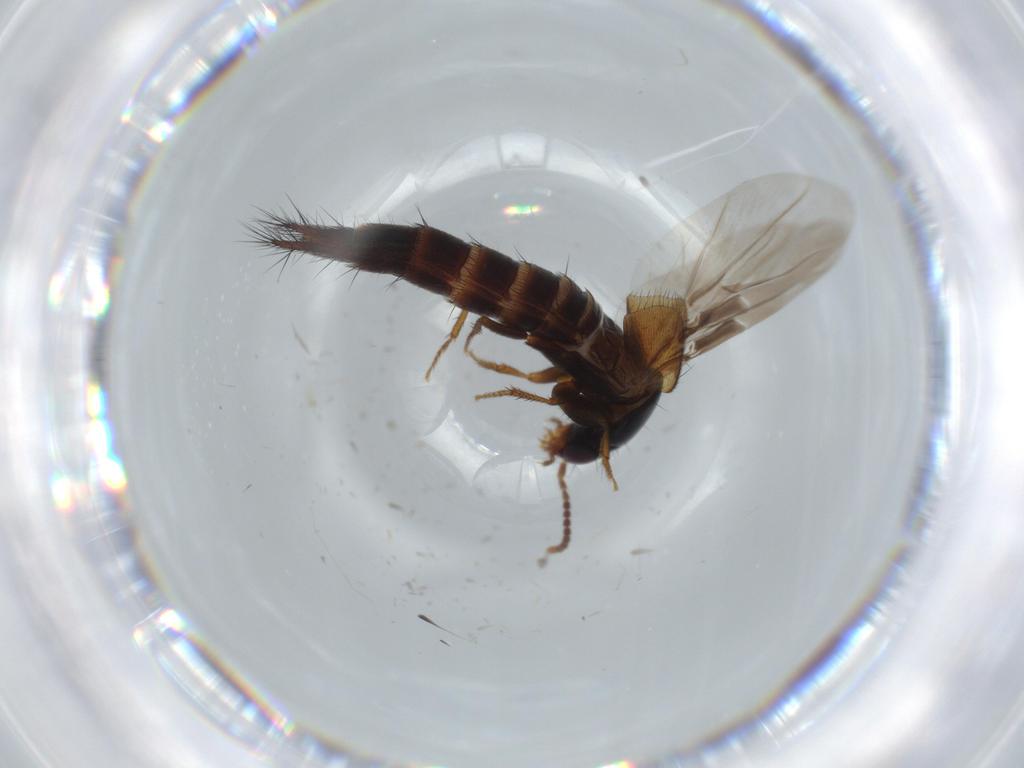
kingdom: Animalia
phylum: Arthropoda
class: Insecta
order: Coleoptera
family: Staphylinidae
